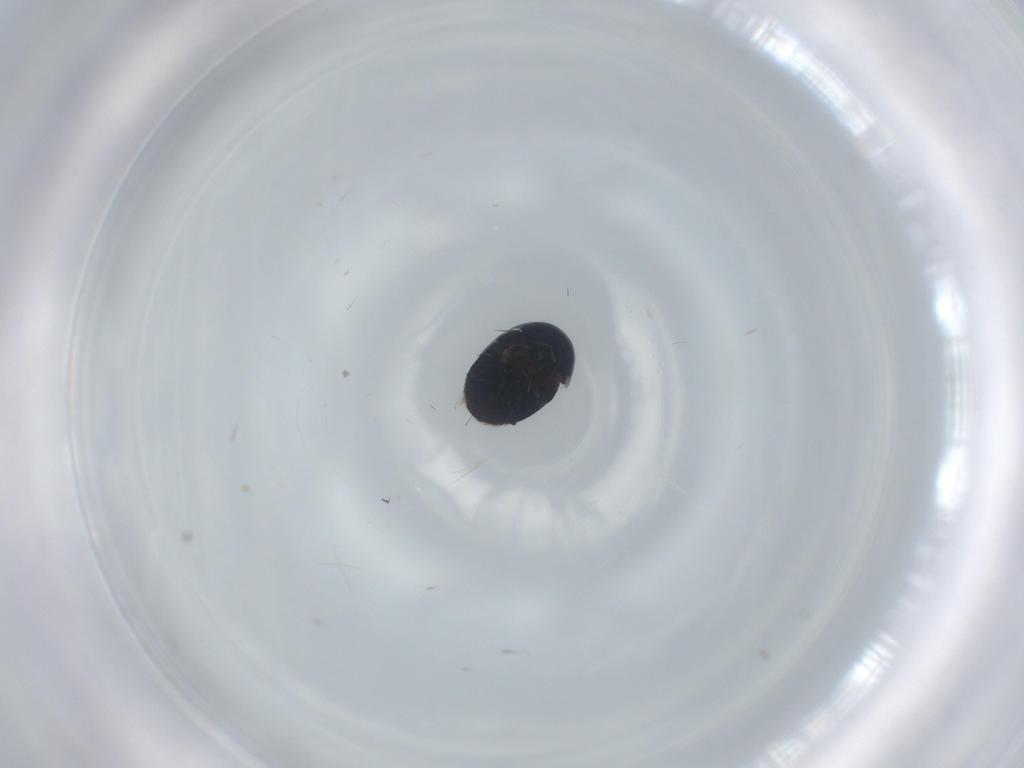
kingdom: Animalia
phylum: Arthropoda
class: Insecta
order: Coleoptera
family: Cybocephalidae
